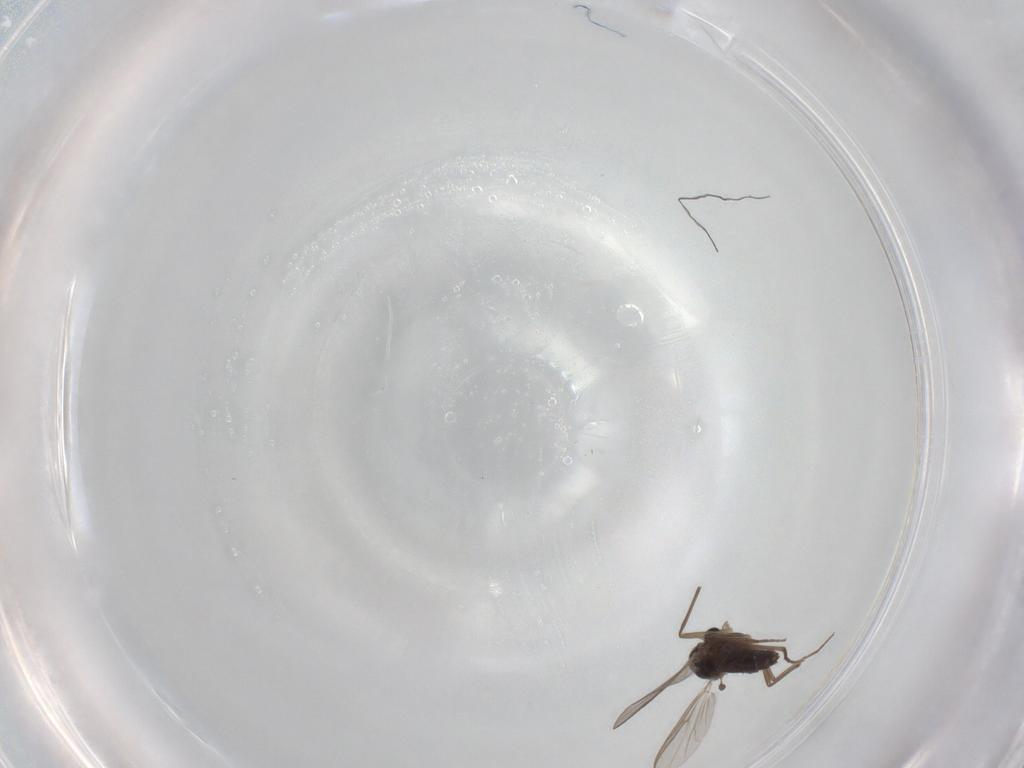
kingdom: Animalia
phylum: Arthropoda
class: Insecta
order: Diptera
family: Chironomidae
